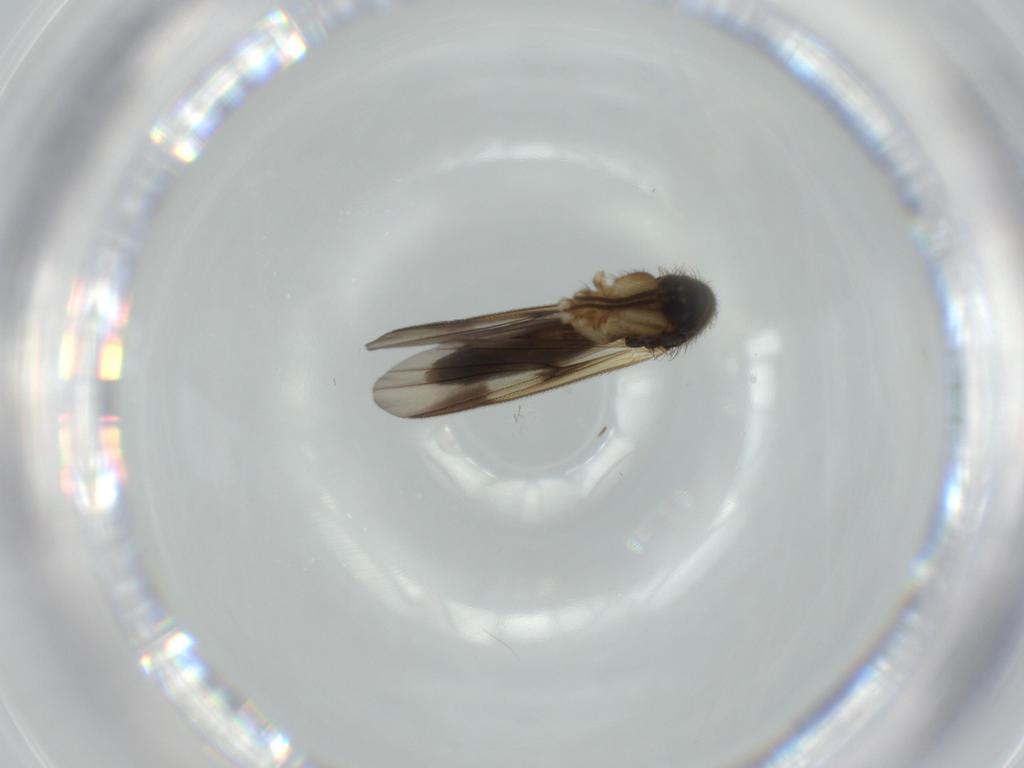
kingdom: Animalia
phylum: Arthropoda
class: Insecta
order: Diptera
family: Mycetophilidae
